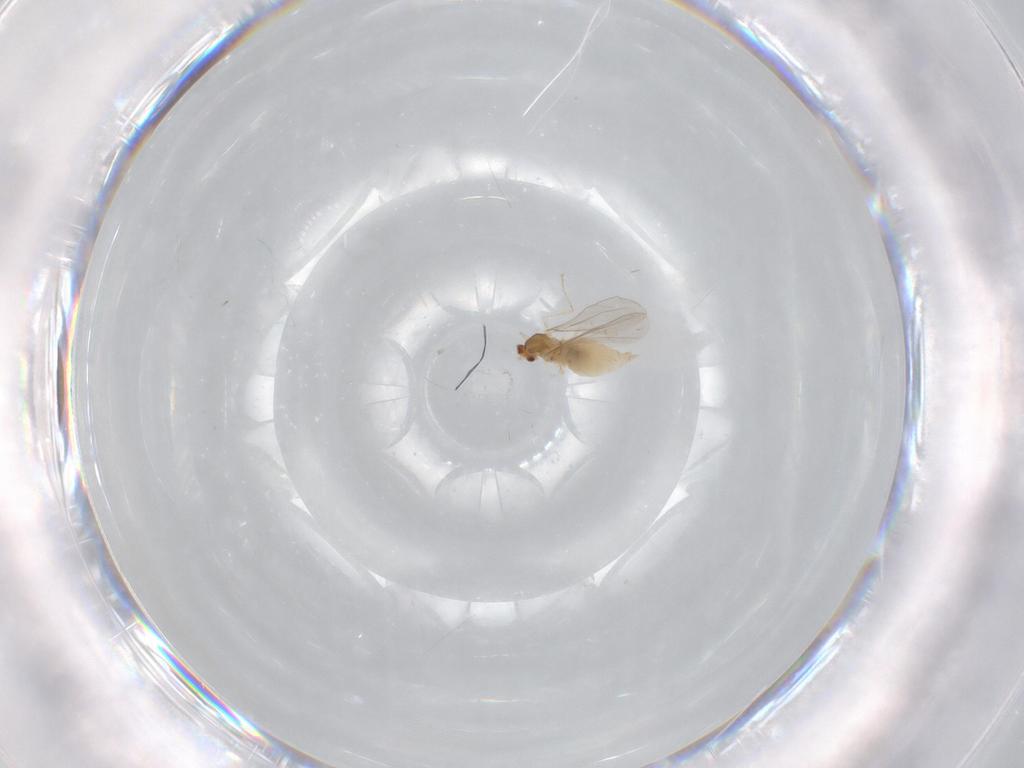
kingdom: Animalia
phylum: Arthropoda
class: Insecta
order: Diptera
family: Cecidomyiidae
